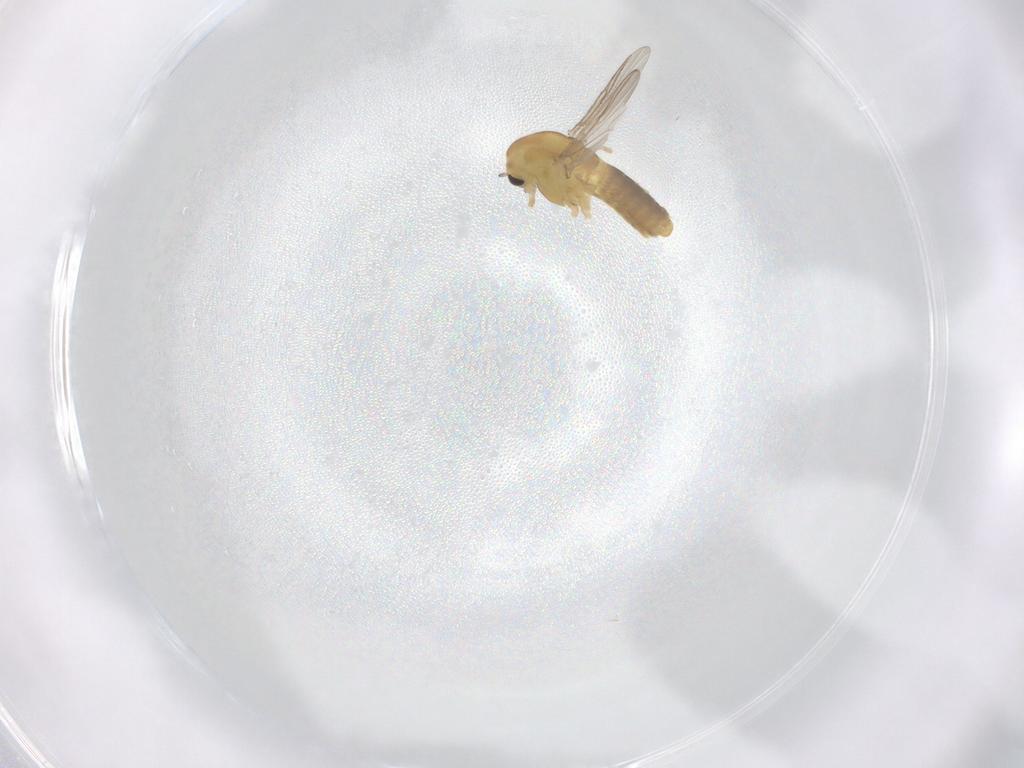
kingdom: Animalia
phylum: Arthropoda
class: Insecta
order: Diptera
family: Chironomidae
